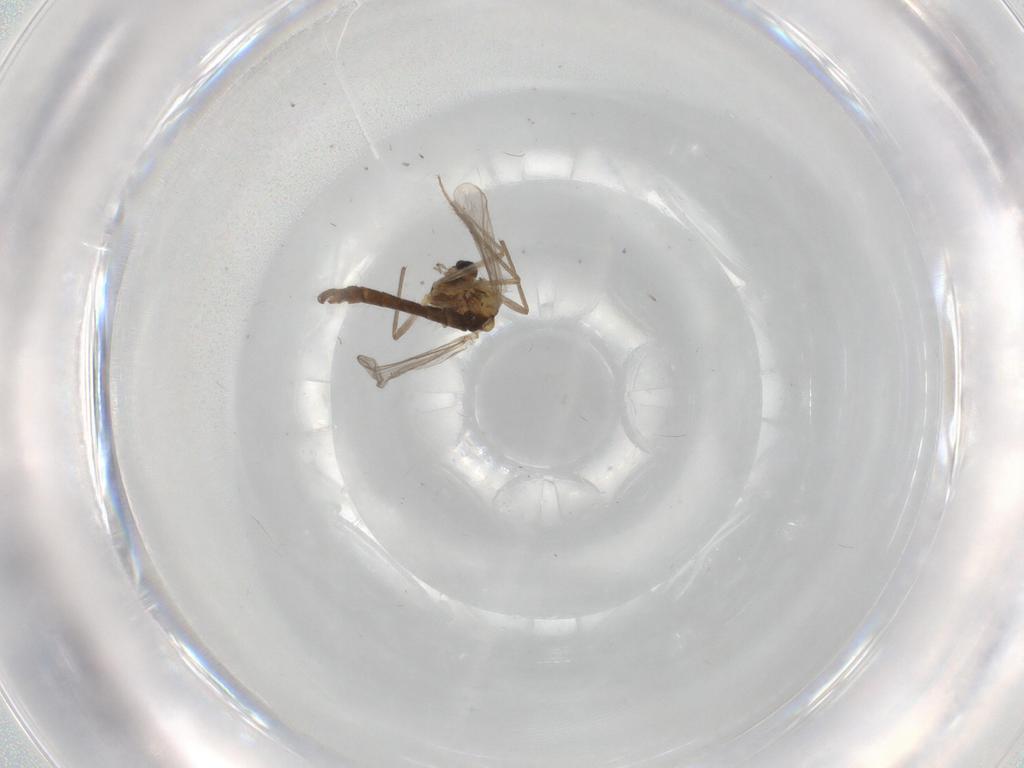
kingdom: Animalia
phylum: Arthropoda
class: Insecta
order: Diptera
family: Chironomidae
